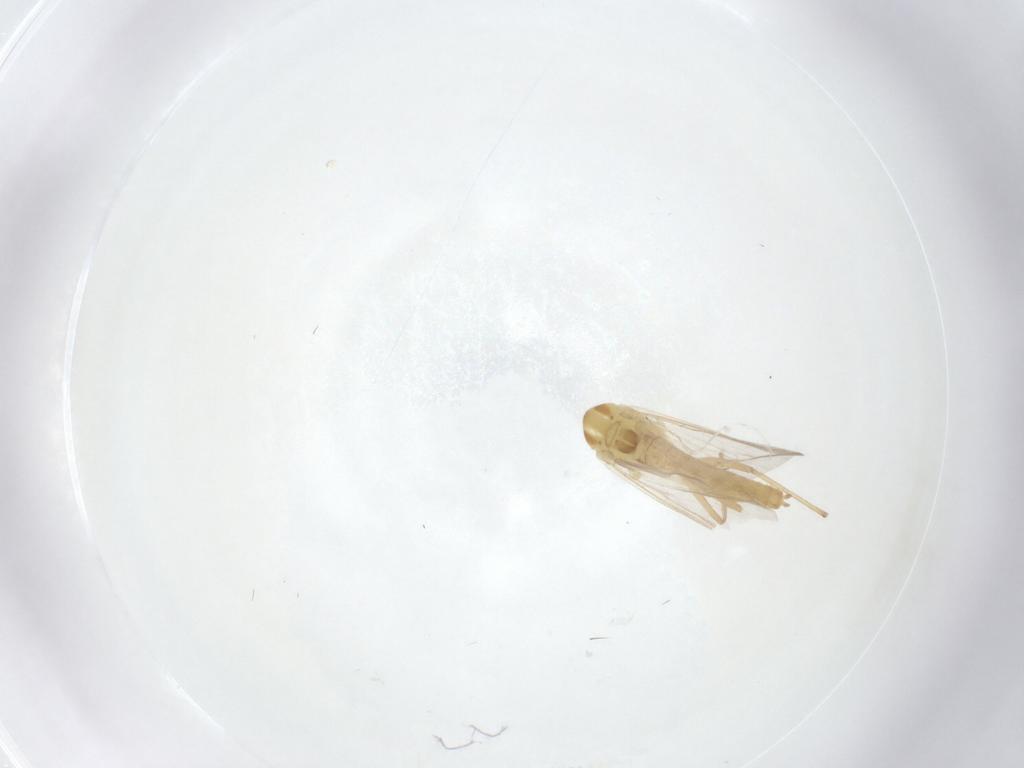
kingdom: Animalia
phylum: Arthropoda
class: Insecta
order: Diptera
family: Chironomidae
